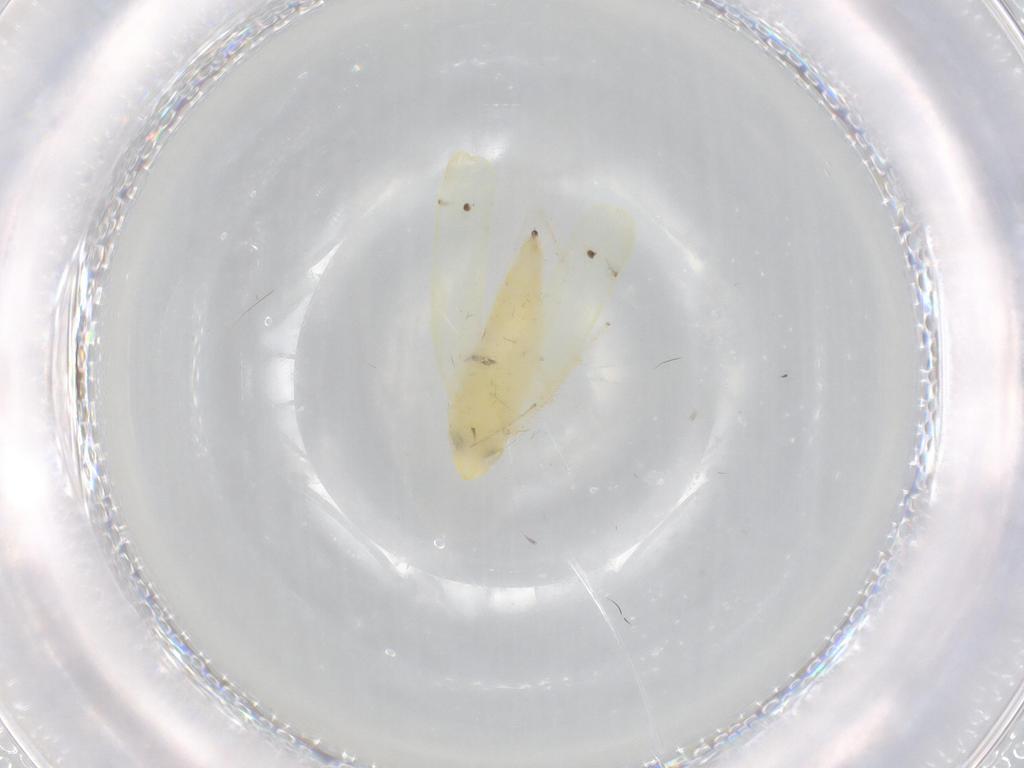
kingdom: Animalia
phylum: Arthropoda
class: Insecta
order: Hemiptera
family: Cicadellidae
